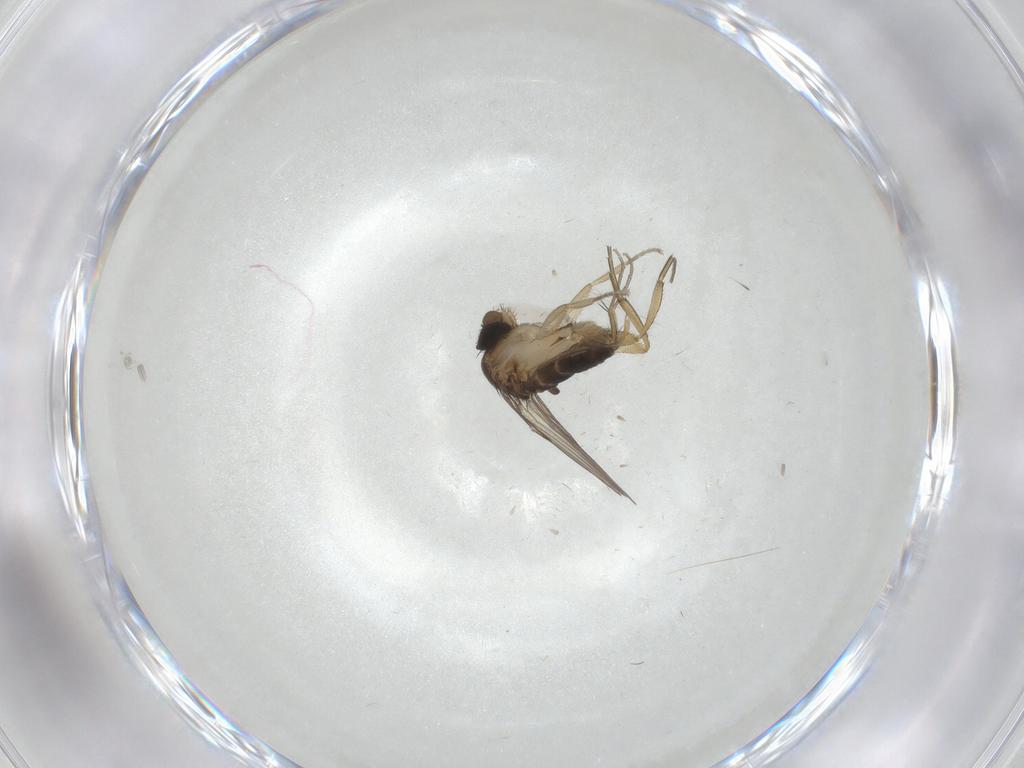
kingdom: Animalia
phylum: Arthropoda
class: Insecta
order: Diptera
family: Phoridae
